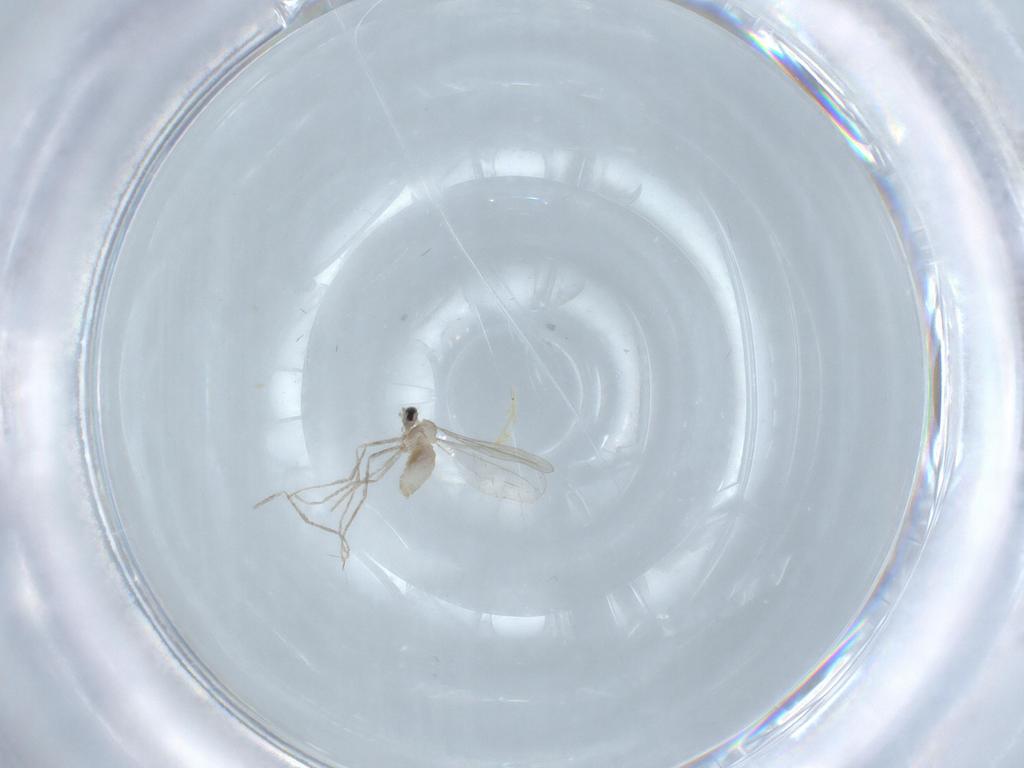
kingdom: Animalia
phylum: Arthropoda
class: Insecta
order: Diptera
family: Cecidomyiidae
